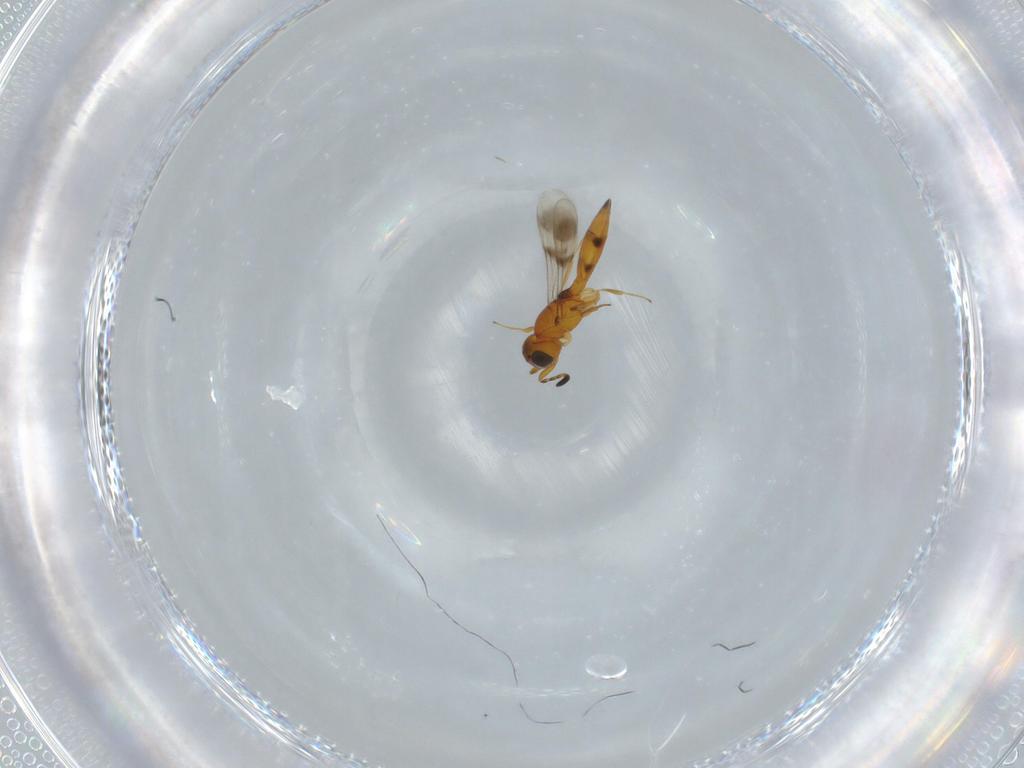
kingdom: Animalia
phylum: Arthropoda
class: Insecta
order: Hymenoptera
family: Scelionidae
